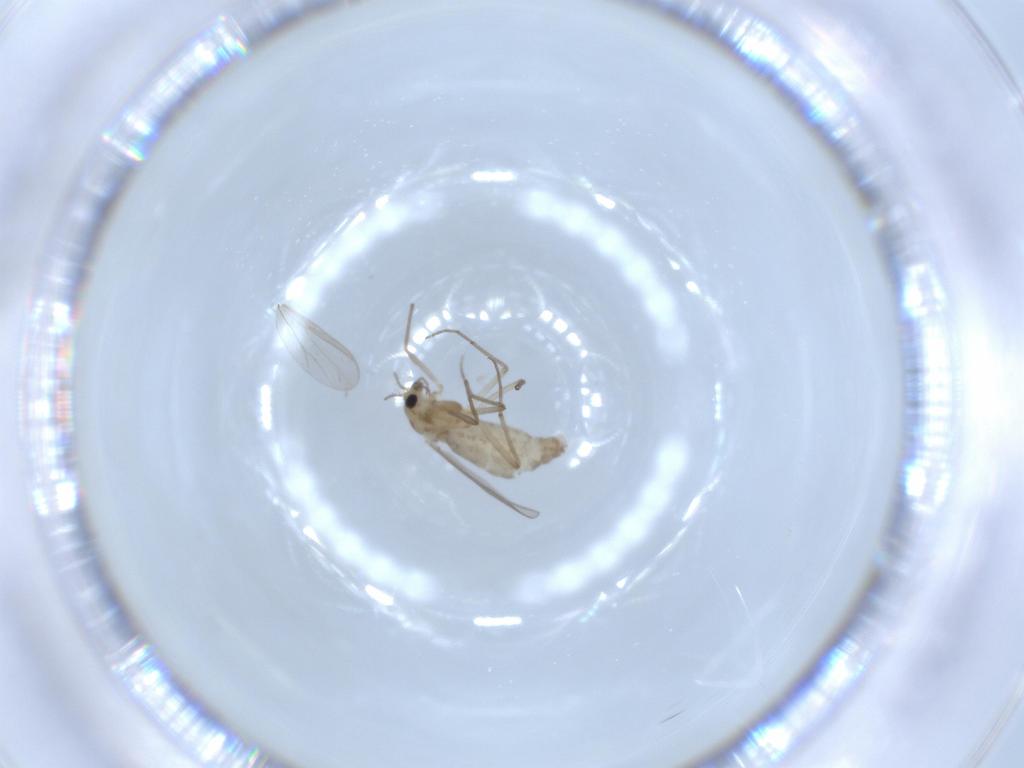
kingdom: Animalia
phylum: Arthropoda
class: Insecta
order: Diptera
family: Chironomidae
